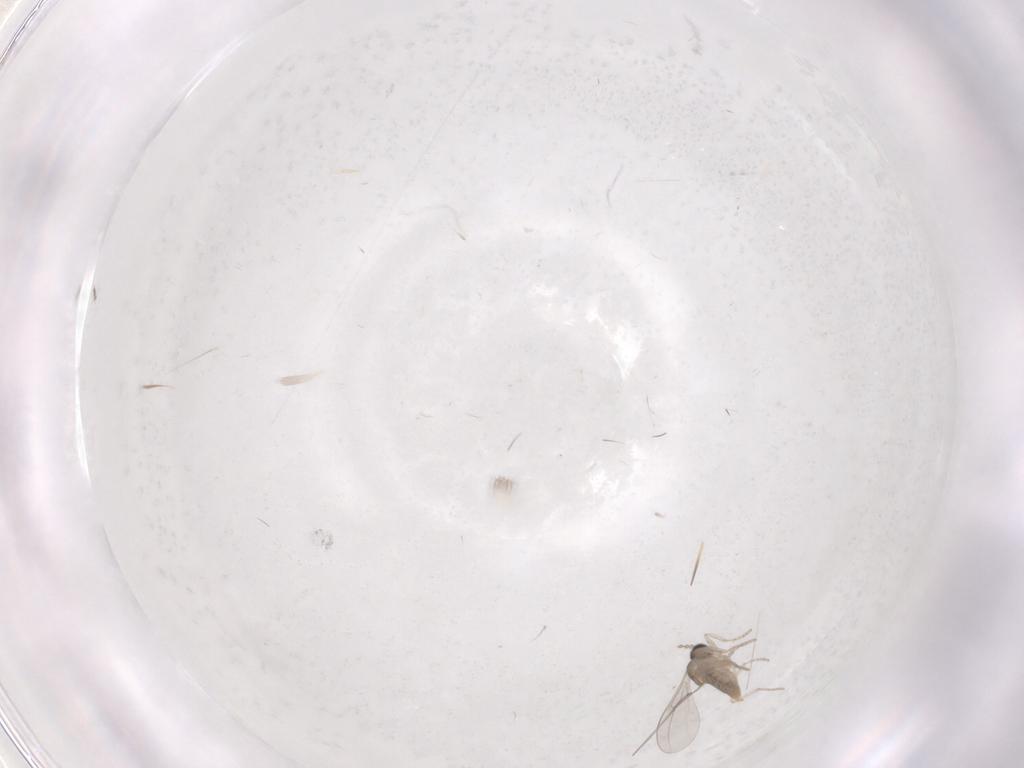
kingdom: Animalia
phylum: Arthropoda
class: Insecta
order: Diptera
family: Cecidomyiidae
